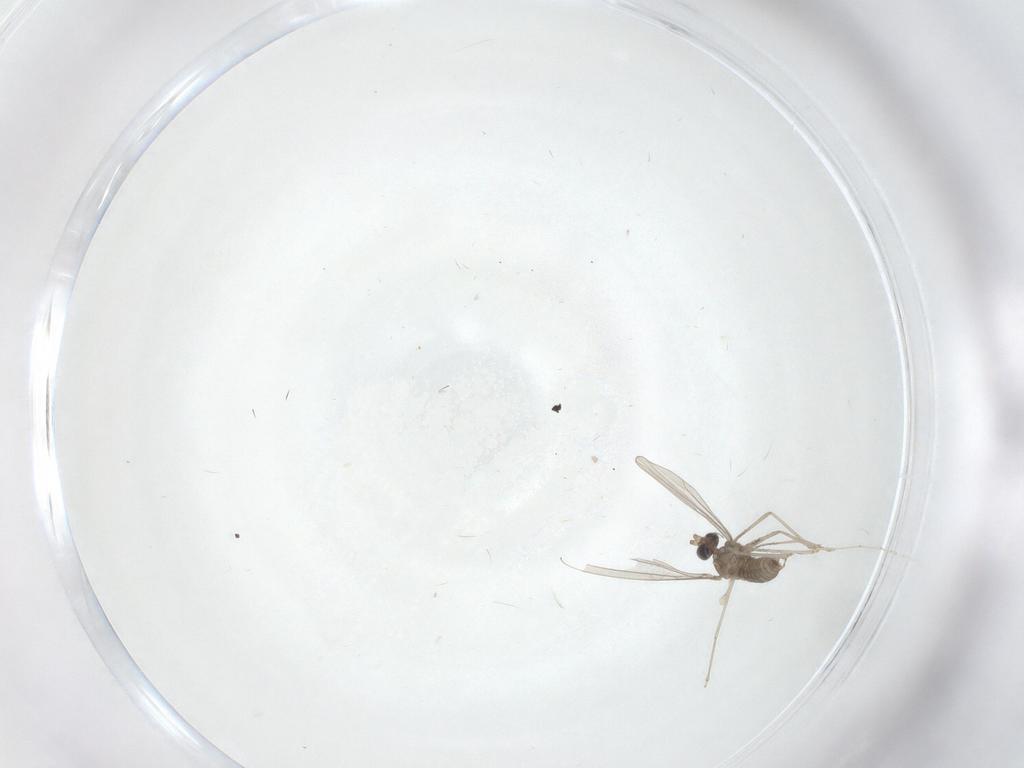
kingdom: Animalia
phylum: Arthropoda
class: Insecta
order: Diptera
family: Cecidomyiidae
